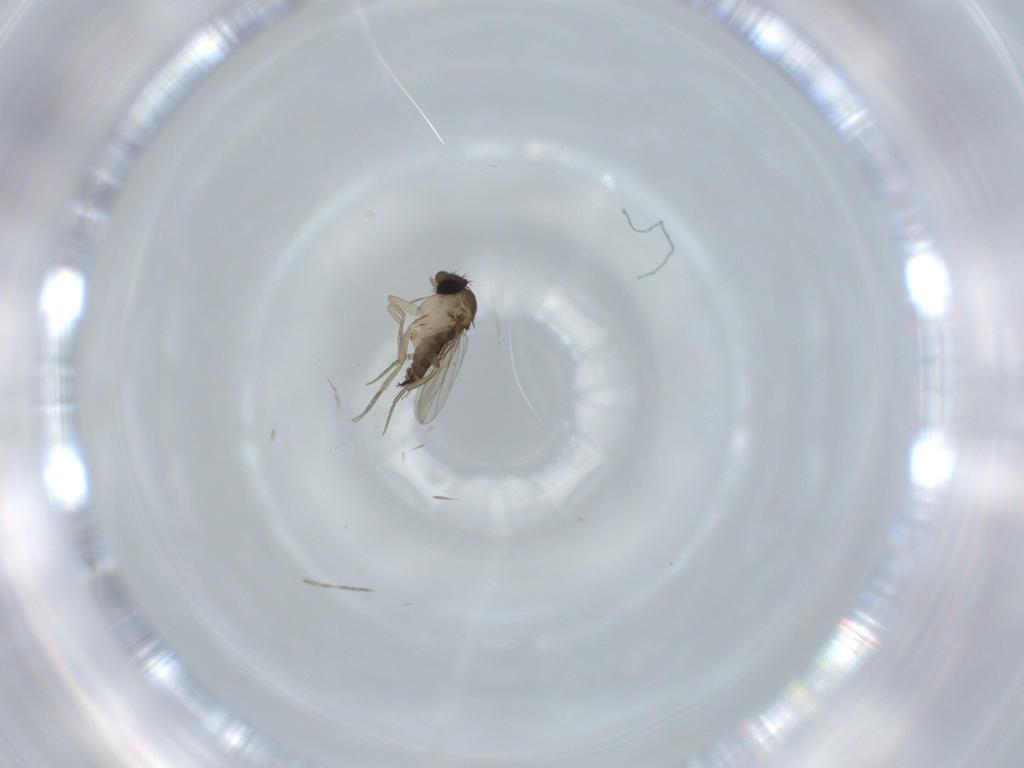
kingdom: Animalia
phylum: Arthropoda
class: Insecta
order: Diptera
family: Phoridae
